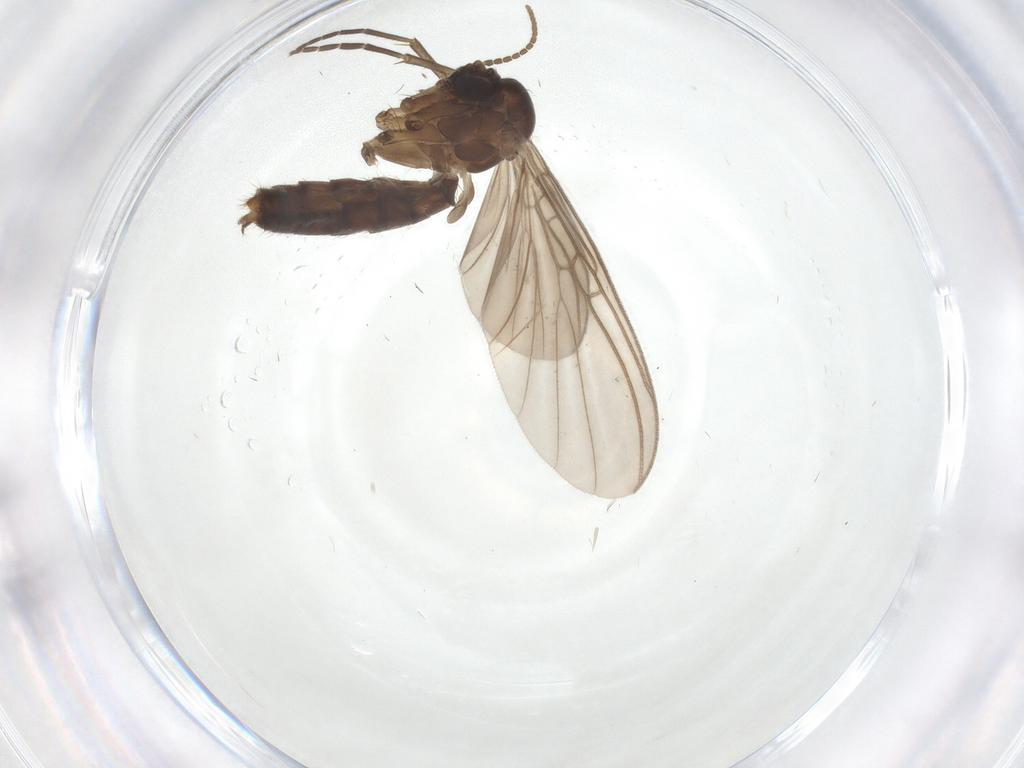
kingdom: Animalia
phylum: Arthropoda
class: Insecta
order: Diptera
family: Mycetophilidae
